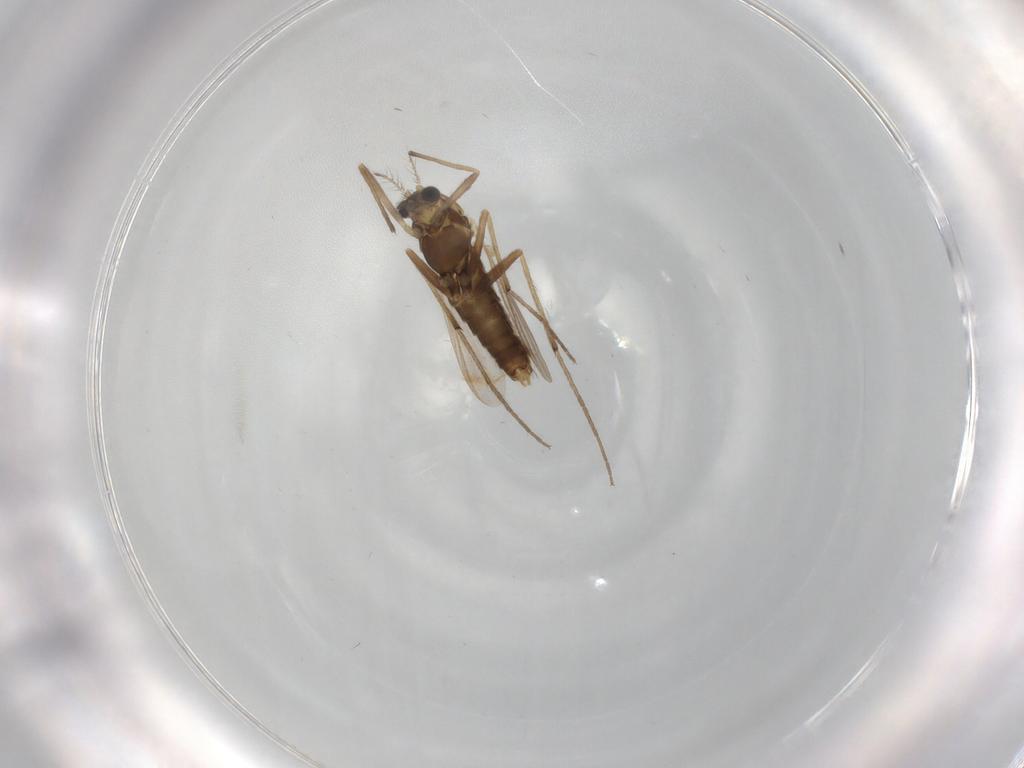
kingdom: Animalia
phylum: Arthropoda
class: Insecta
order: Diptera
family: Chironomidae
